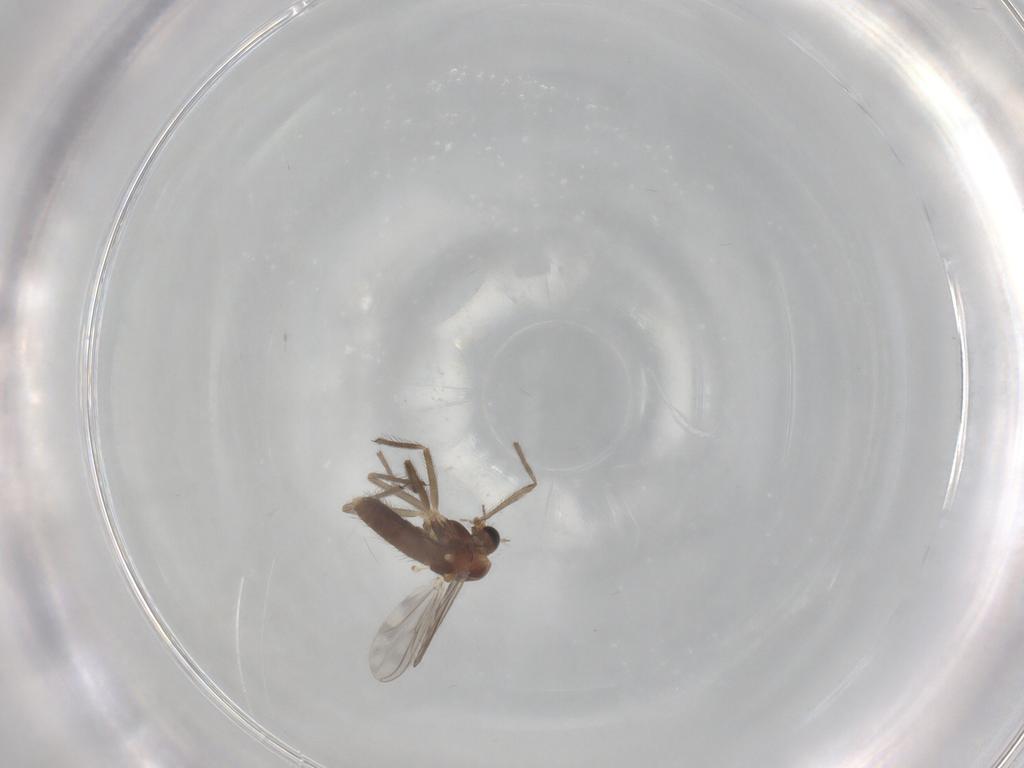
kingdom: Animalia
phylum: Arthropoda
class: Insecta
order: Diptera
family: Chironomidae
